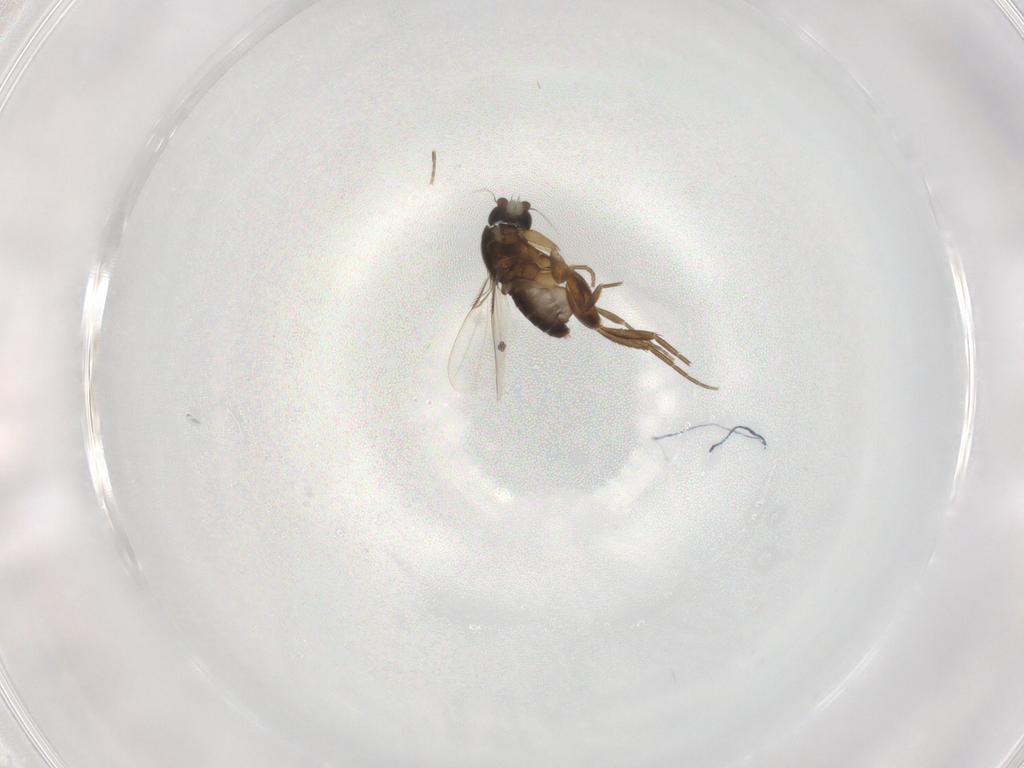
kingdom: Animalia
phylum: Arthropoda
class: Insecta
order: Diptera
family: Phoridae
